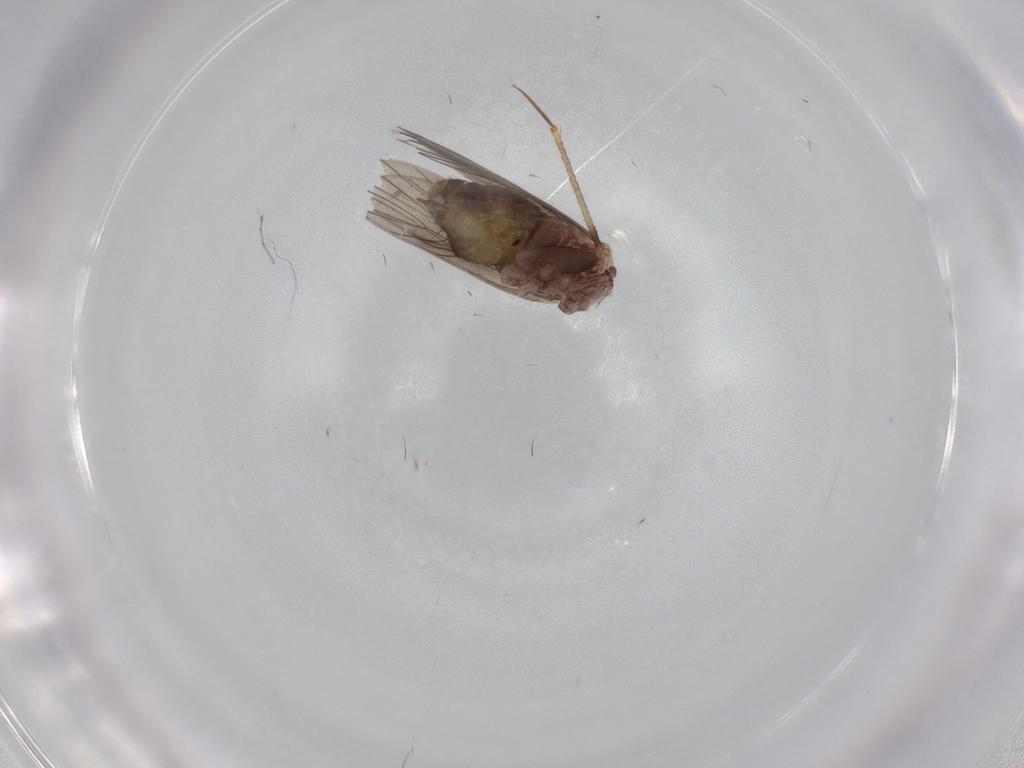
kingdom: Animalia
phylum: Arthropoda
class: Insecta
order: Psocodea
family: Lepidopsocidae
